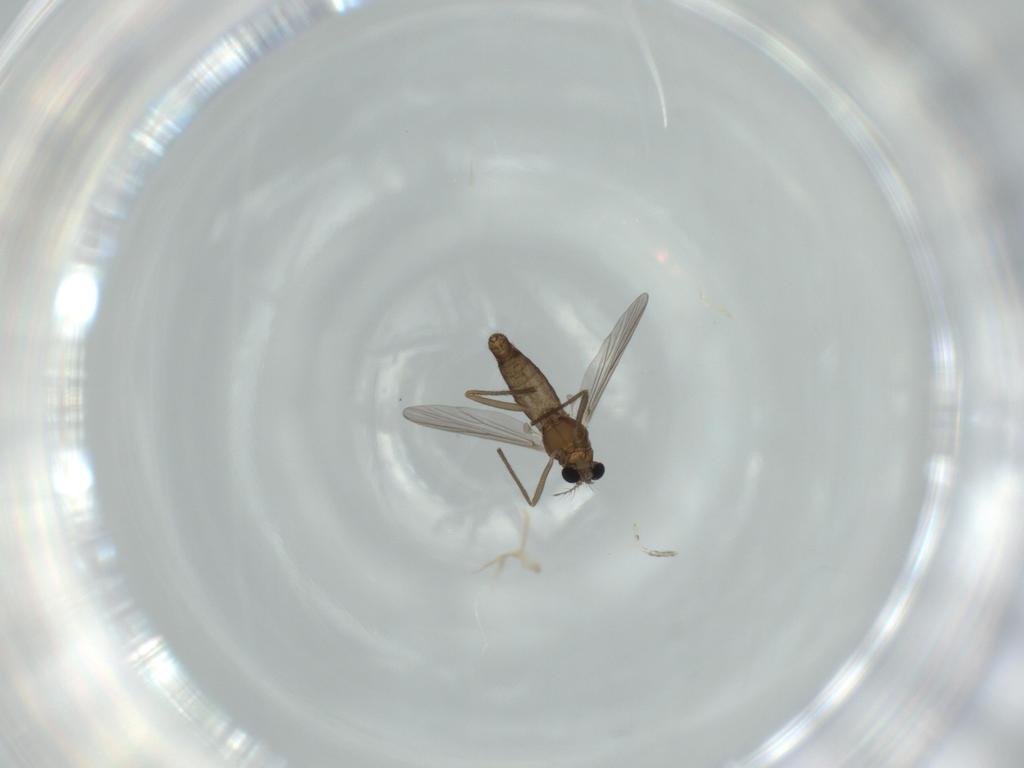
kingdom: Animalia
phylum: Arthropoda
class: Insecta
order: Diptera
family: Chironomidae
